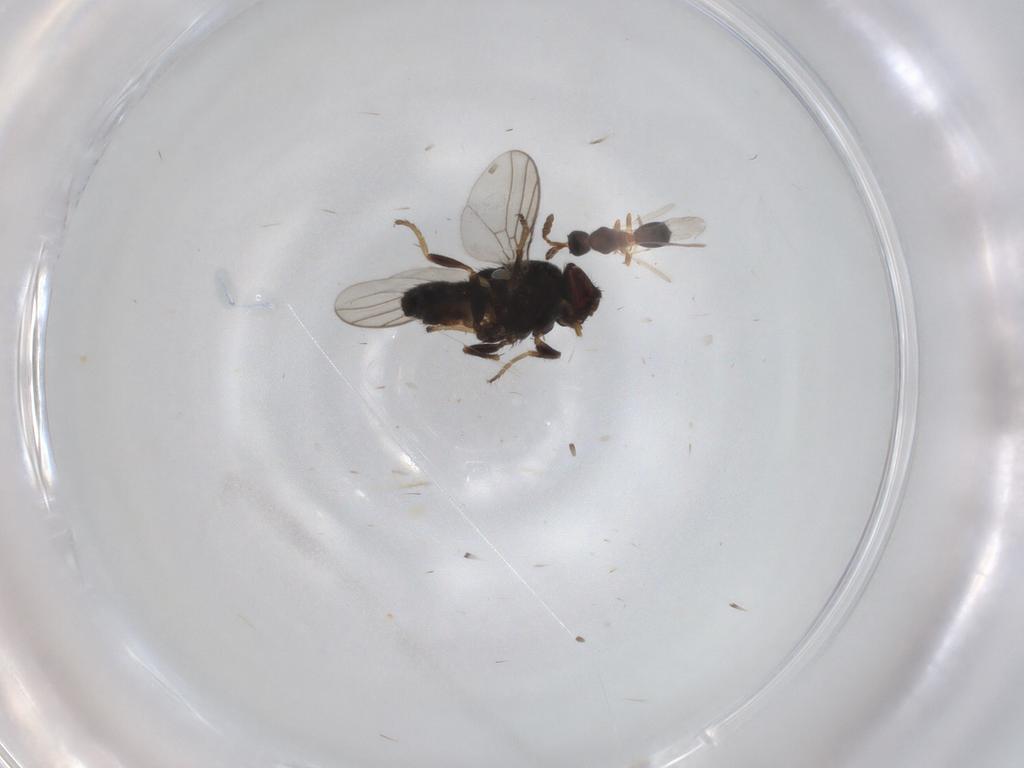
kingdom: Animalia
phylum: Arthropoda
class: Insecta
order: Diptera
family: Chloropidae
